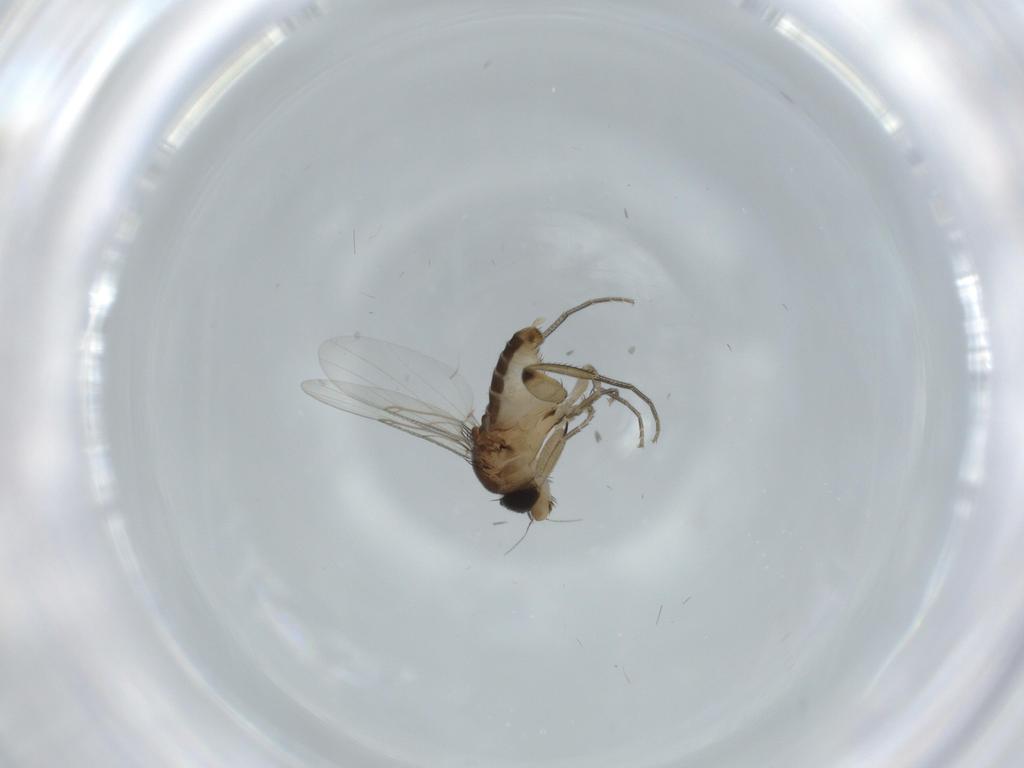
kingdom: Animalia
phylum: Arthropoda
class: Insecta
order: Diptera
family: Phoridae
